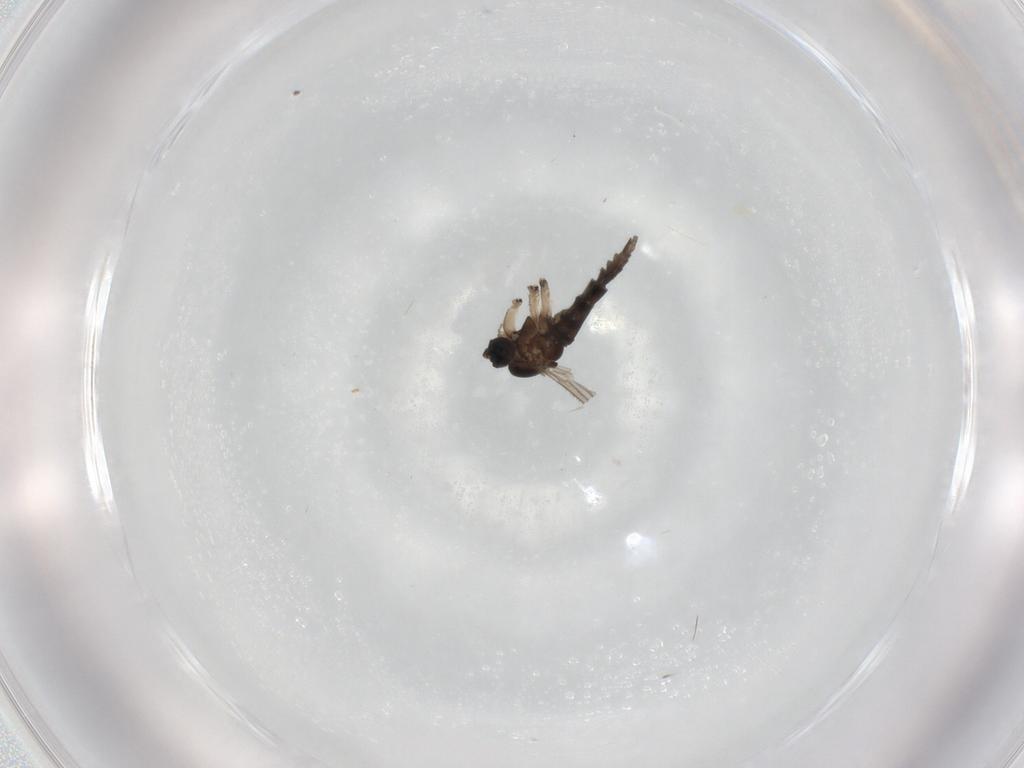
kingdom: Animalia
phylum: Arthropoda
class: Insecta
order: Diptera
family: Sciaridae
